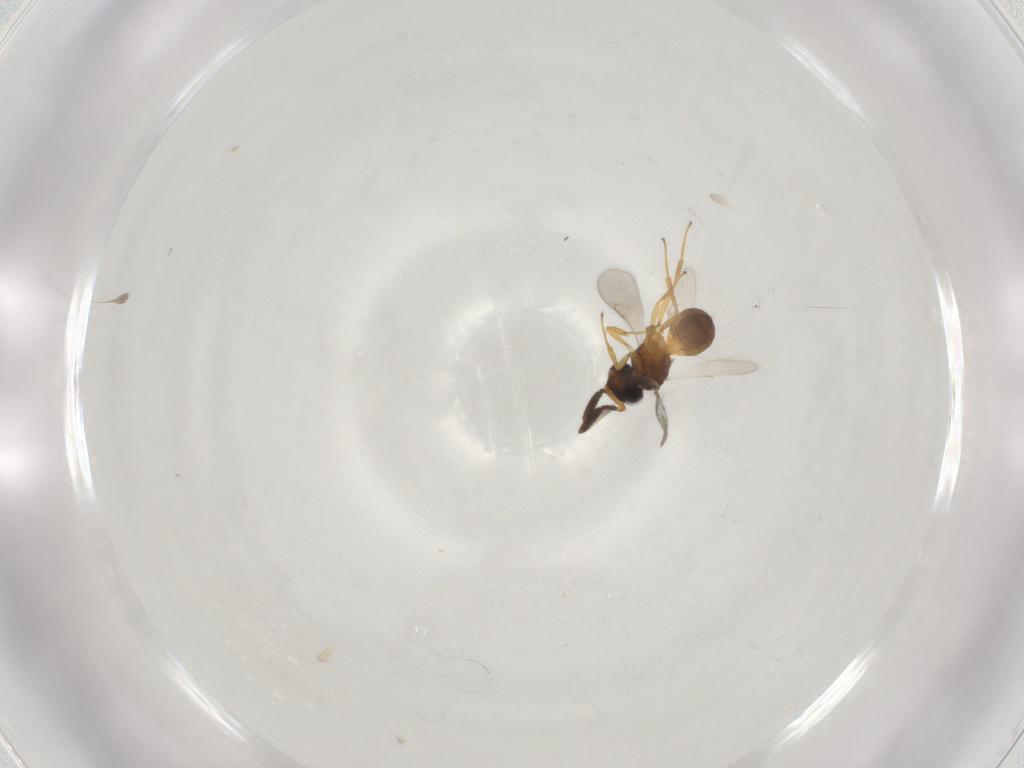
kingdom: Animalia
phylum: Arthropoda
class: Insecta
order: Hymenoptera
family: Scelionidae
